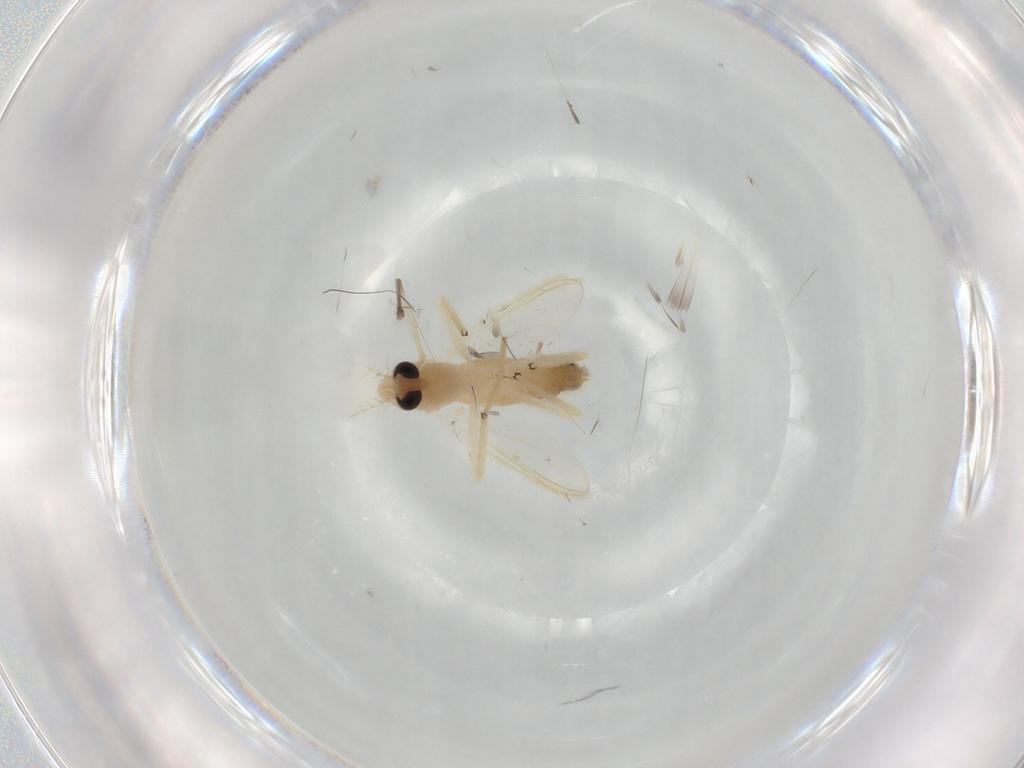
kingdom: Animalia
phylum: Arthropoda
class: Insecta
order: Diptera
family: Chironomidae
